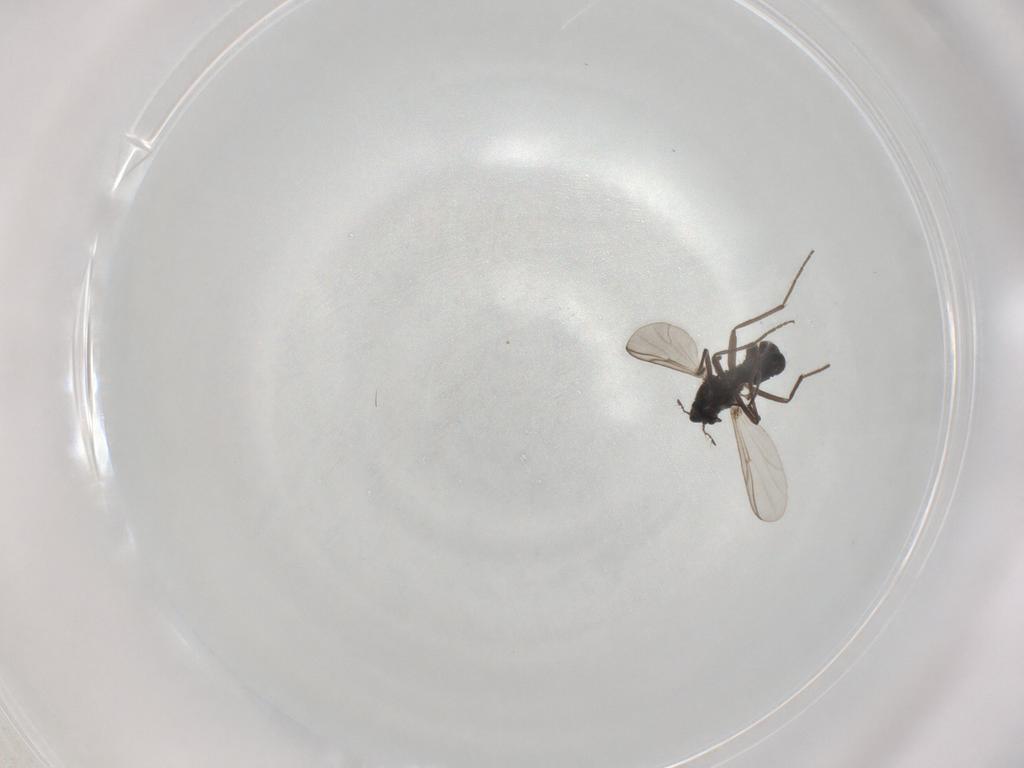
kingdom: Animalia
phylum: Arthropoda
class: Insecta
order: Diptera
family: Chironomidae
